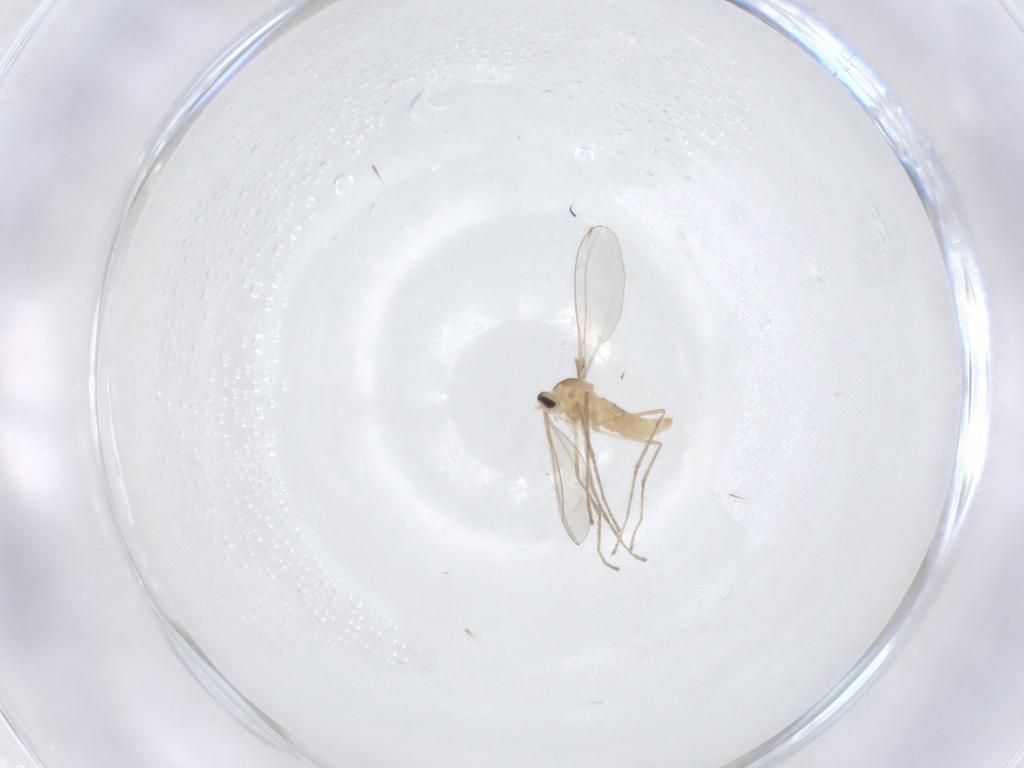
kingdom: Animalia
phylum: Arthropoda
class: Insecta
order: Diptera
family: Cecidomyiidae
